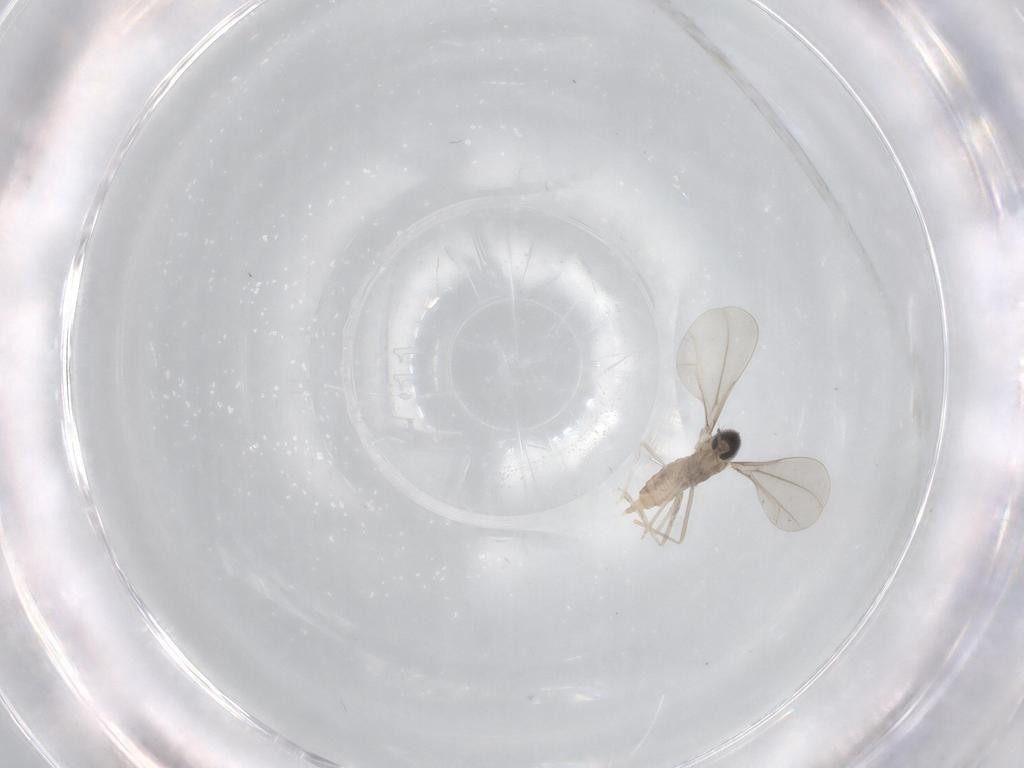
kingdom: Animalia
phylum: Arthropoda
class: Insecta
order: Diptera
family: Cecidomyiidae
